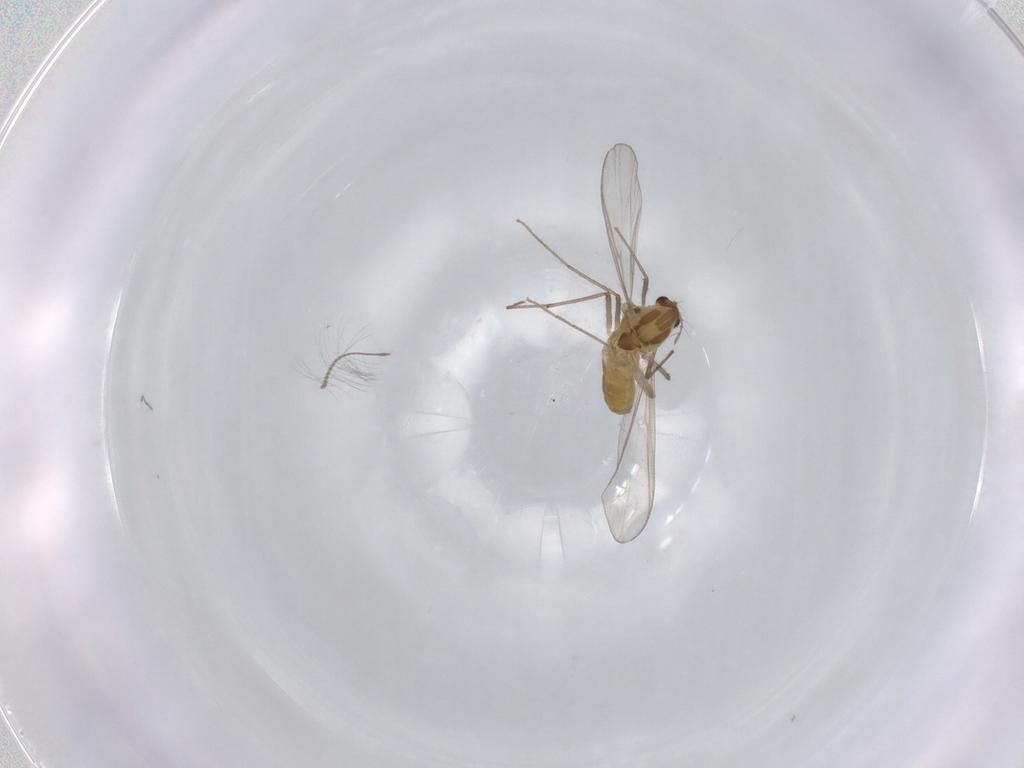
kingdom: Animalia
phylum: Arthropoda
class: Insecta
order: Diptera
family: Chironomidae
